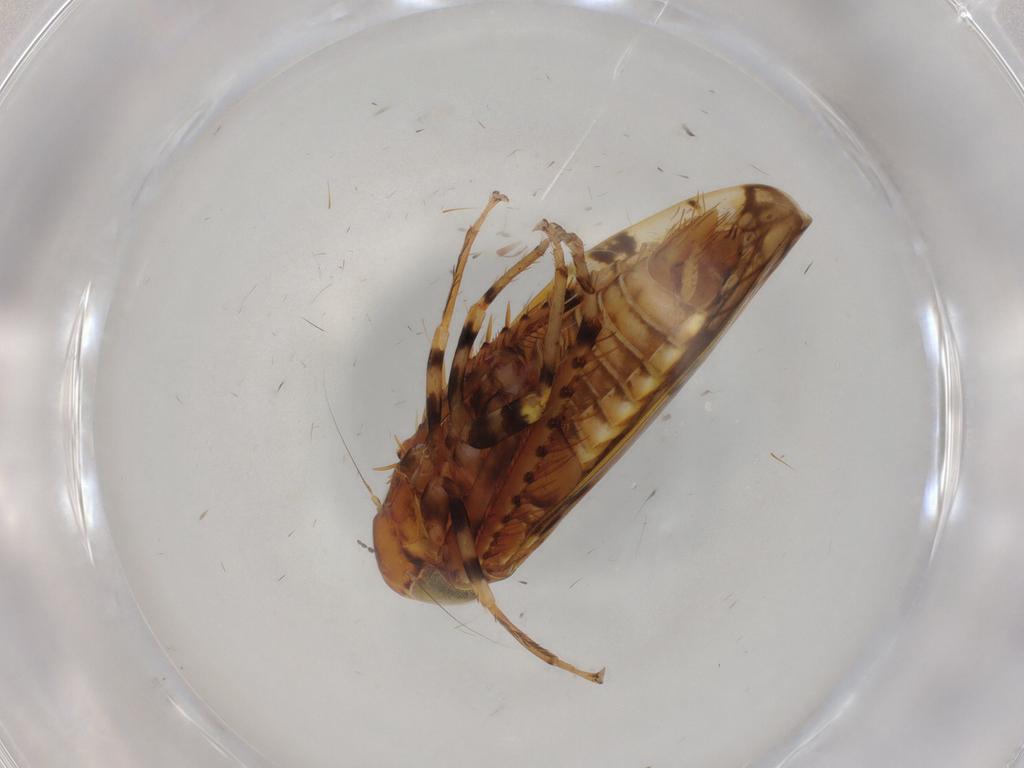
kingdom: Animalia
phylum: Arthropoda
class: Insecta
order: Hemiptera
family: Cicadellidae
